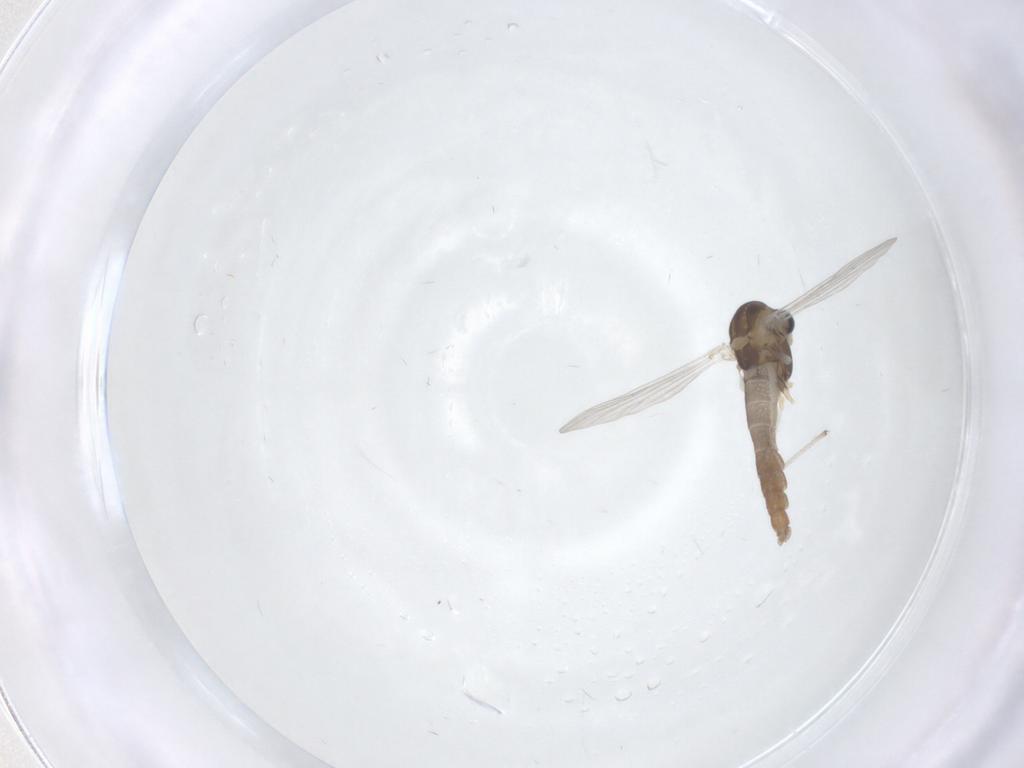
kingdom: Animalia
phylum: Arthropoda
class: Insecta
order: Diptera
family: Chironomidae
